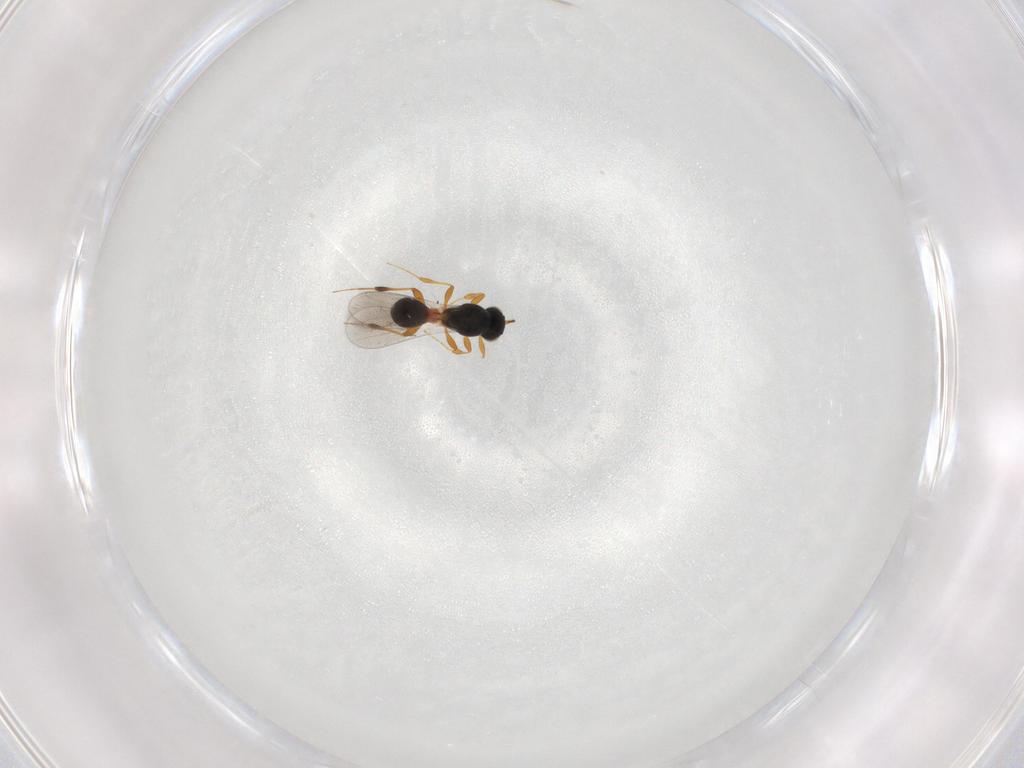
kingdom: Animalia
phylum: Arthropoda
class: Insecta
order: Hymenoptera
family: Platygastridae
